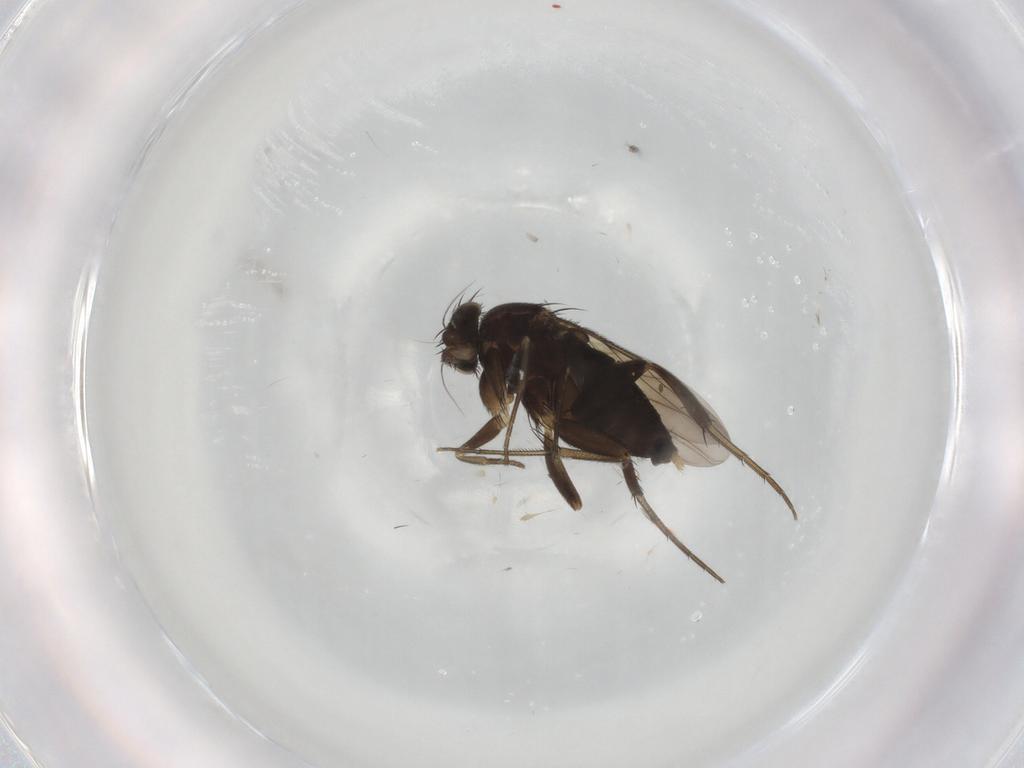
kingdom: Animalia
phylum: Arthropoda
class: Insecta
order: Diptera
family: Phoridae
